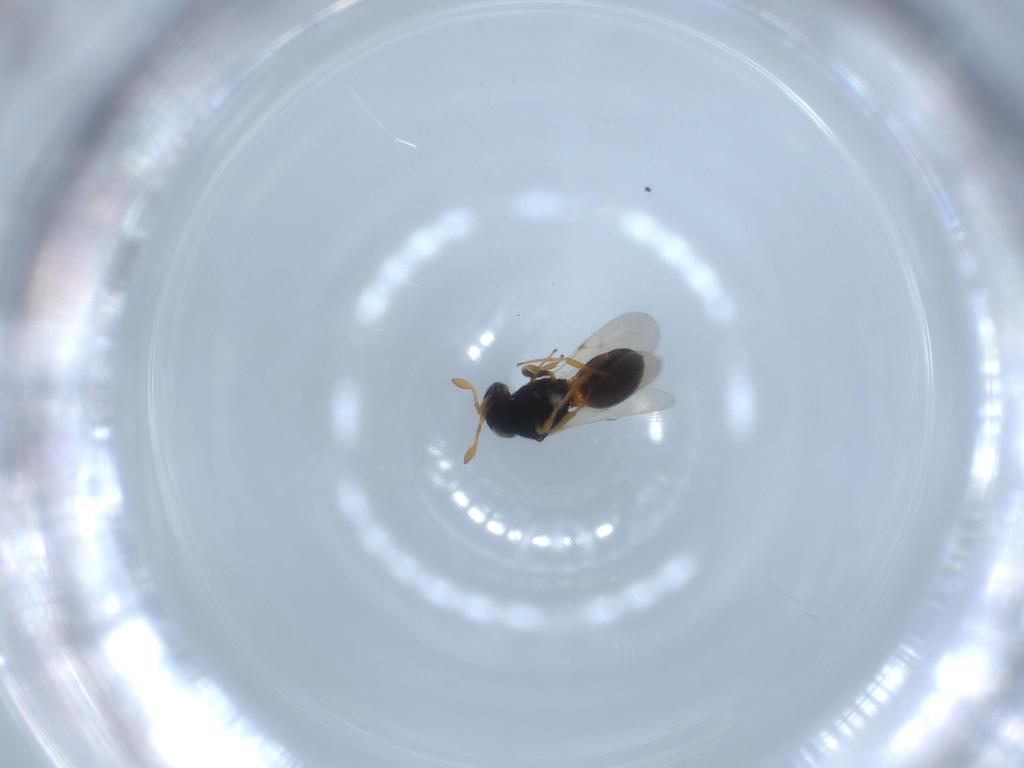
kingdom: Animalia
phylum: Arthropoda
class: Insecta
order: Hymenoptera
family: Scelionidae
